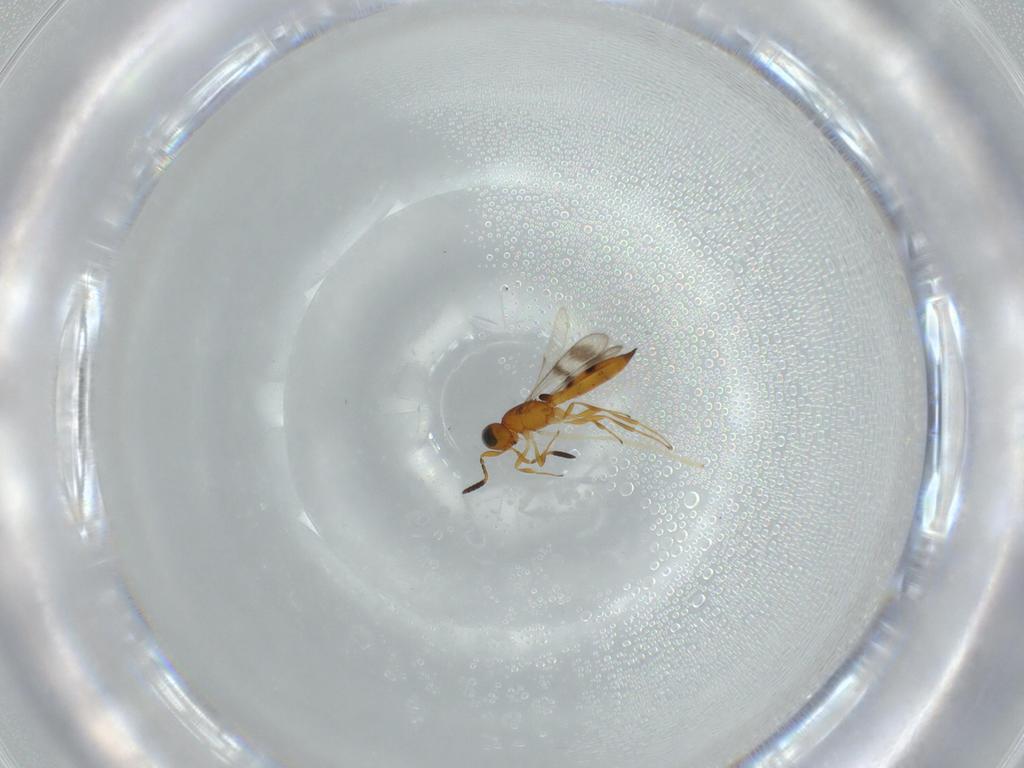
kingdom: Animalia
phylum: Arthropoda
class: Insecta
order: Hymenoptera
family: Scelionidae
